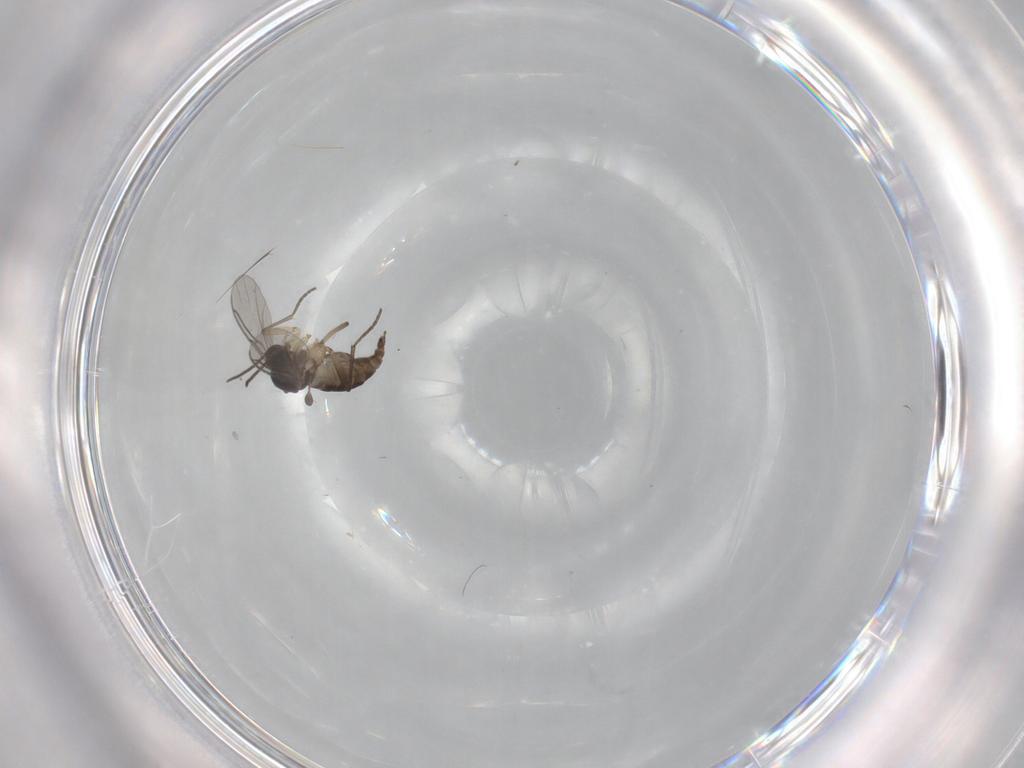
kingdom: Animalia
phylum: Arthropoda
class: Insecta
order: Diptera
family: Sciaridae
